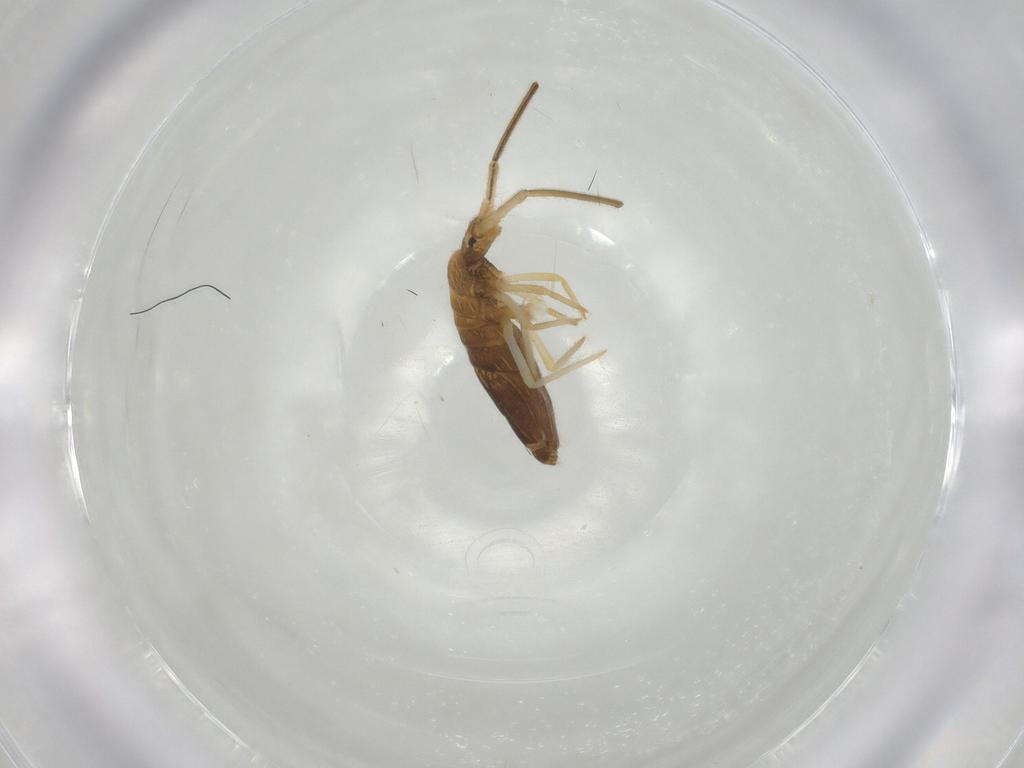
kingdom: Animalia
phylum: Arthropoda
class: Collembola
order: Entomobryomorpha
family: Entomobryidae
